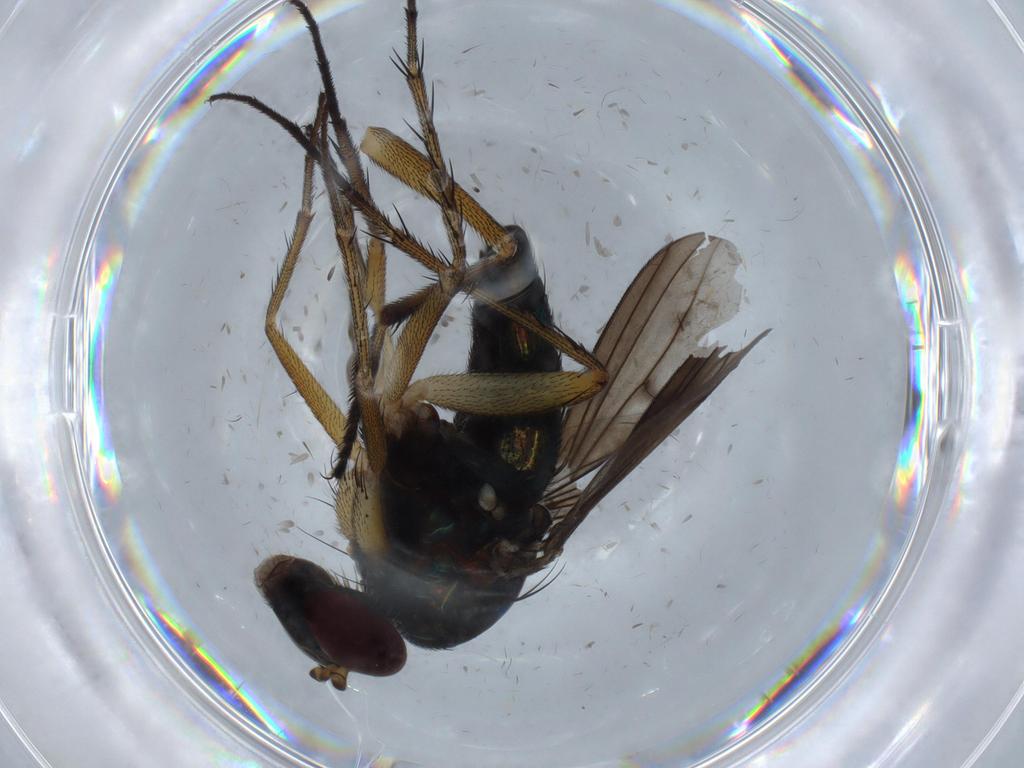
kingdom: Animalia
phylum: Arthropoda
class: Insecta
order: Diptera
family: Dolichopodidae
